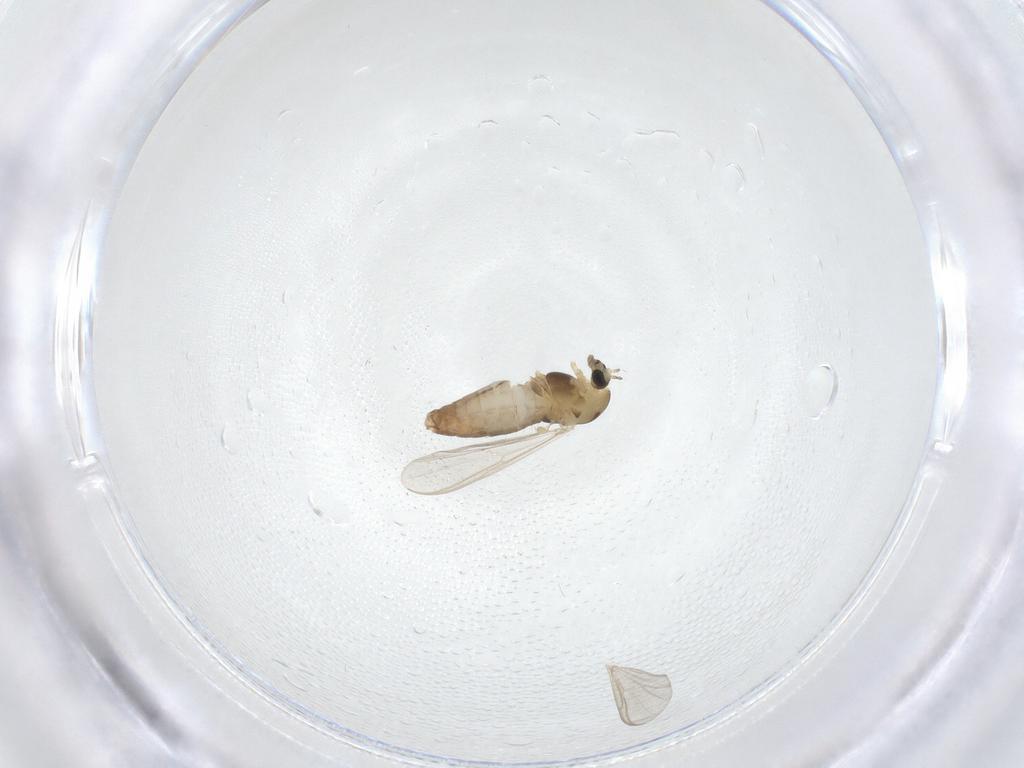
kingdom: Animalia
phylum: Arthropoda
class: Insecta
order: Diptera
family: Chironomidae
